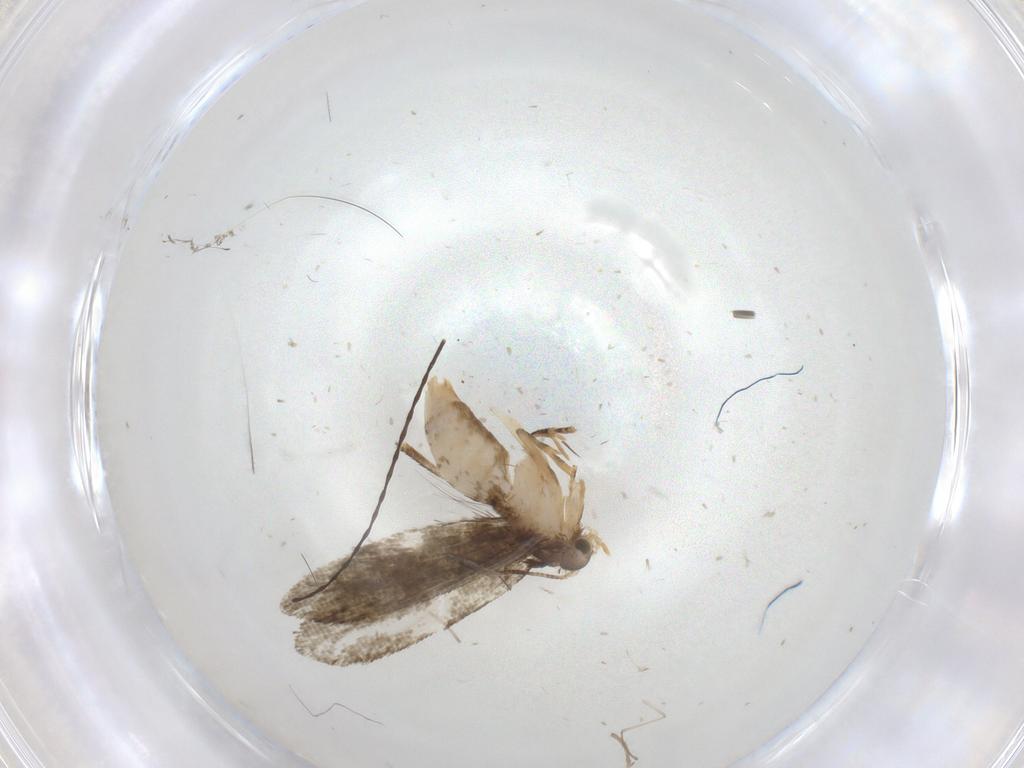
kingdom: Animalia
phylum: Arthropoda
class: Insecta
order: Lepidoptera
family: Tineidae
